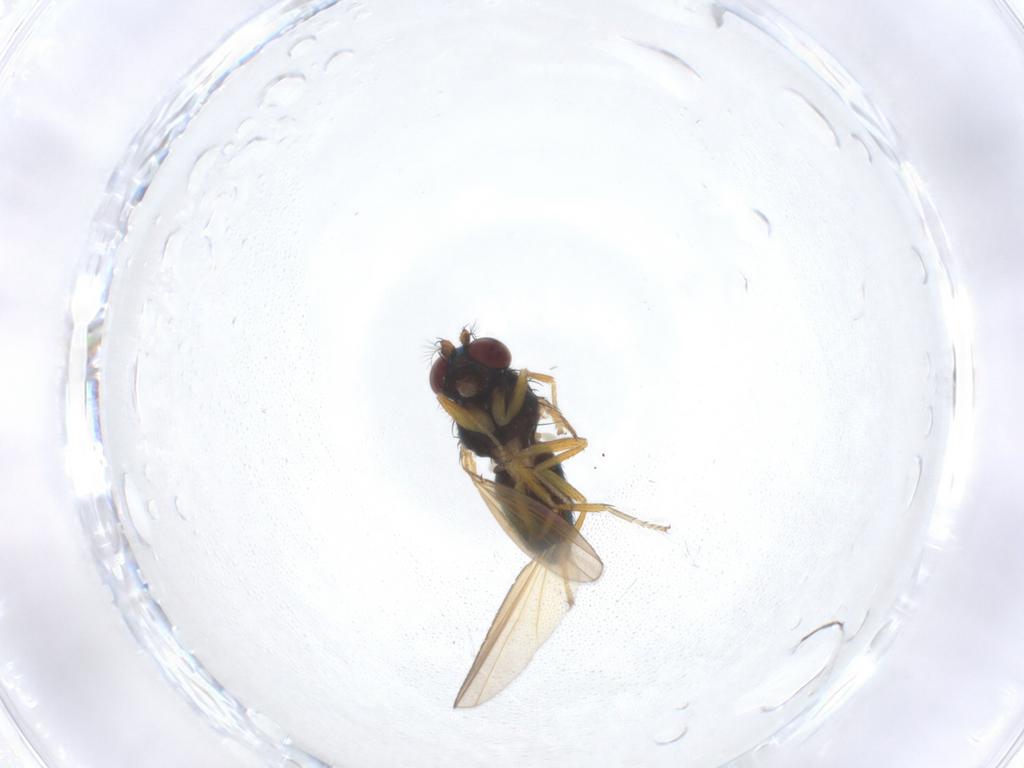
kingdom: Animalia
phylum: Arthropoda
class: Insecta
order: Diptera
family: Ephydridae
